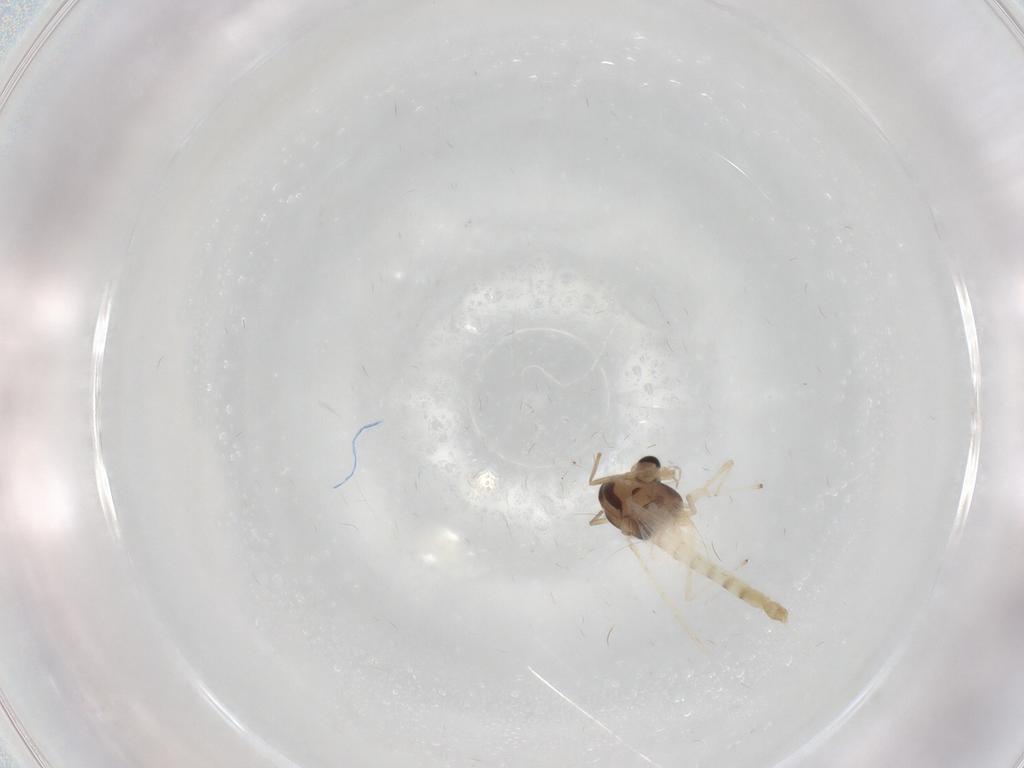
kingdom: Animalia
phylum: Arthropoda
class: Insecta
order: Diptera
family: Chironomidae
